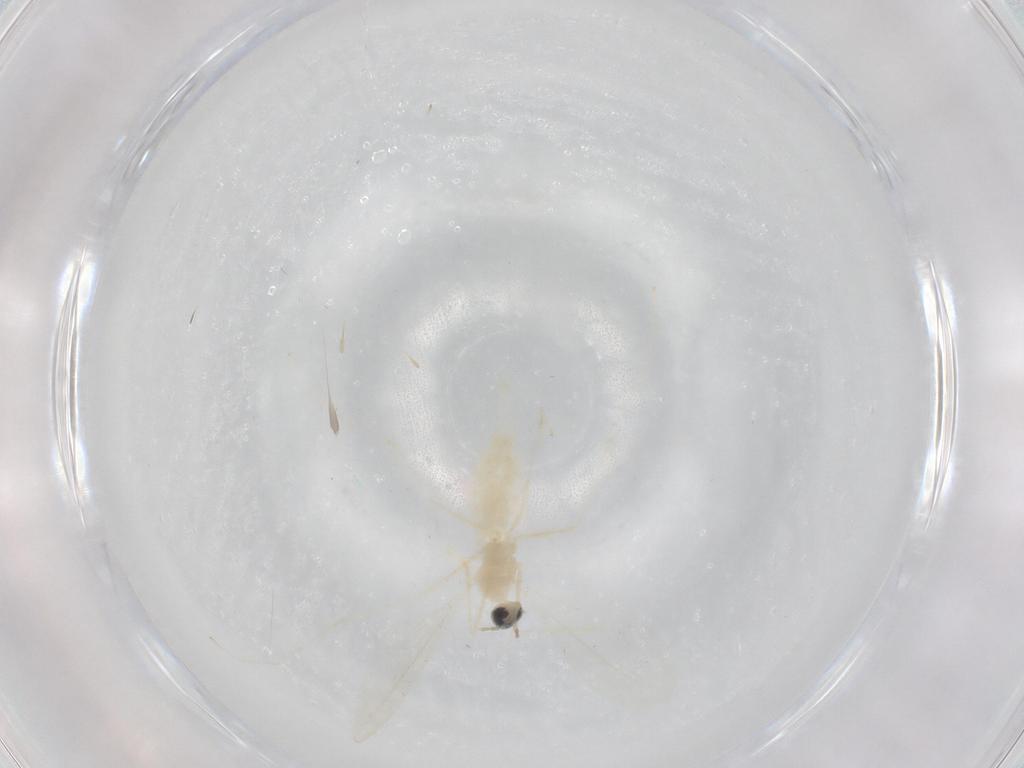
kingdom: Animalia
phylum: Arthropoda
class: Insecta
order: Diptera
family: Cecidomyiidae
